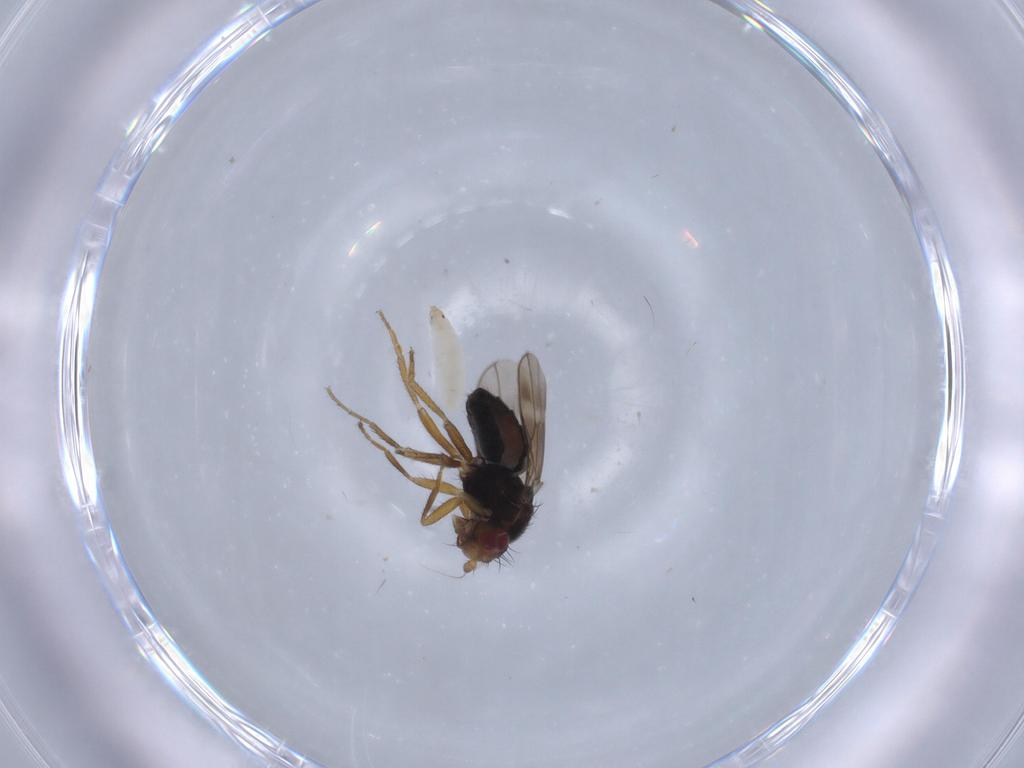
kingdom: Animalia
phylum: Arthropoda
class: Insecta
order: Diptera
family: Sphaeroceridae
